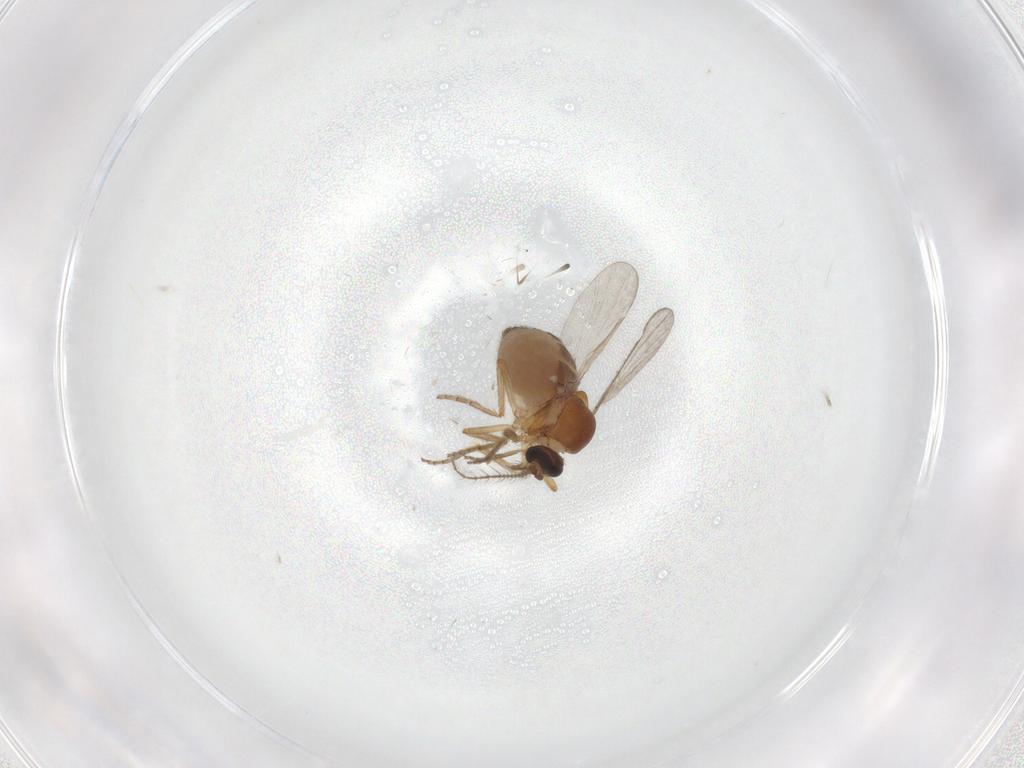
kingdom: Animalia
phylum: Arthropoda
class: Insecta
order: Diptera
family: Ceratopogonidae
